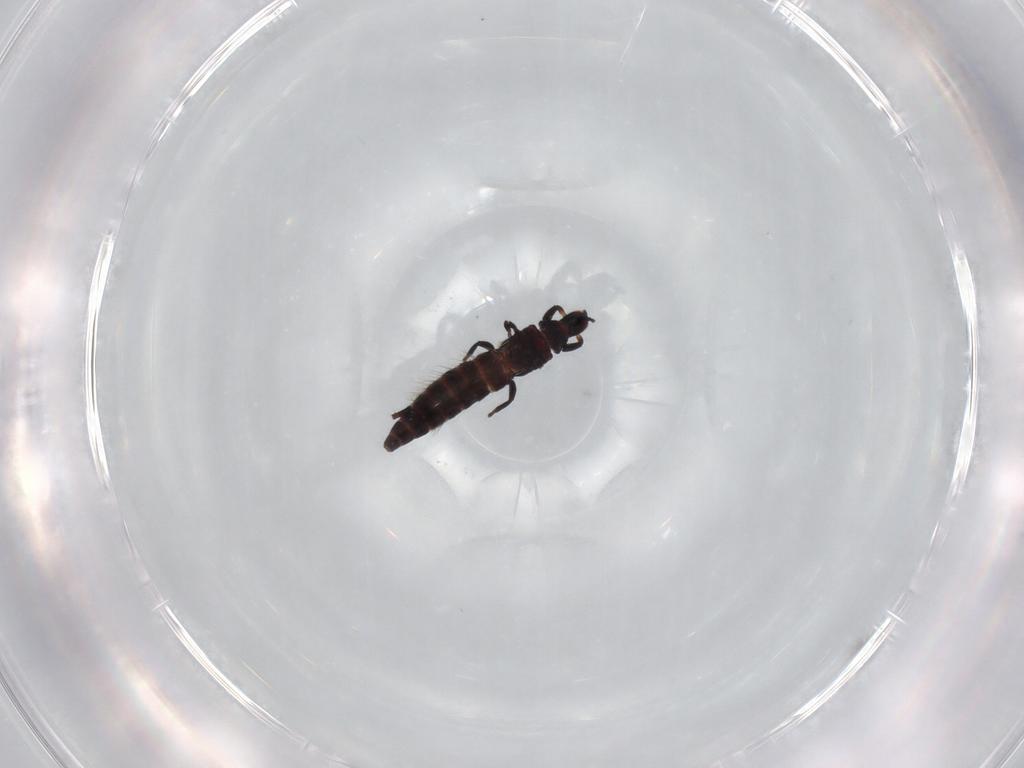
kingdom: Animalia
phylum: Arthropoda
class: Insecta
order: Thysanoptera
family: Phlaeothripidae
